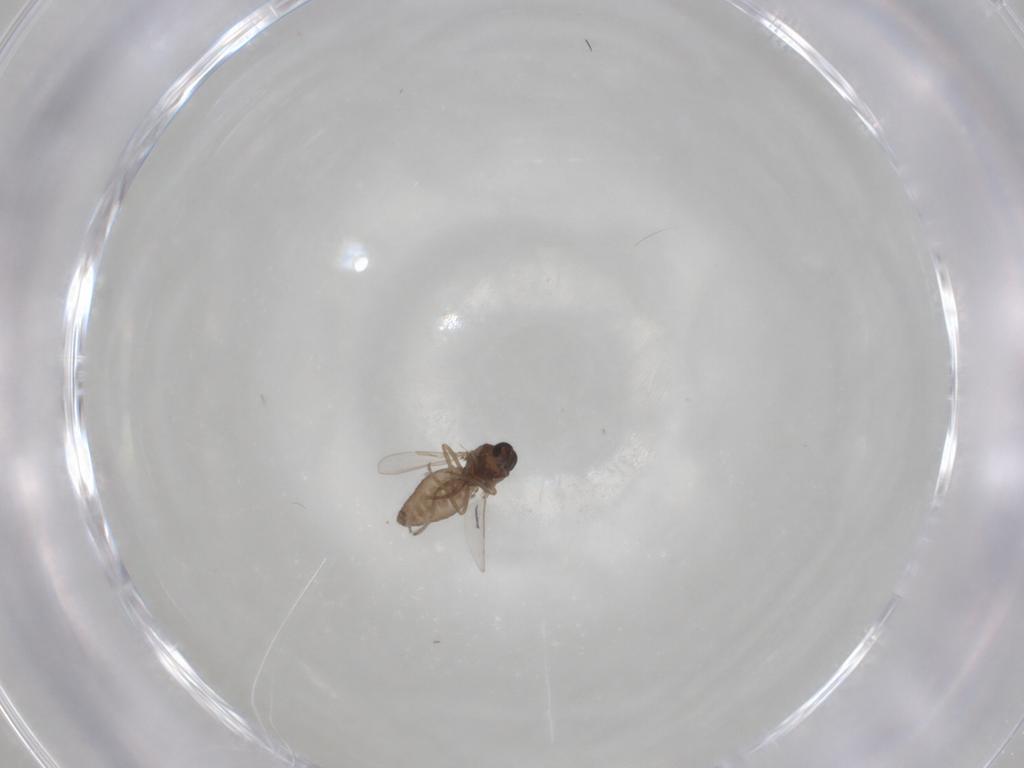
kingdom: Animalia
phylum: Arthropoda
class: Insecta
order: Diptera
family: Ceratopogonidae
